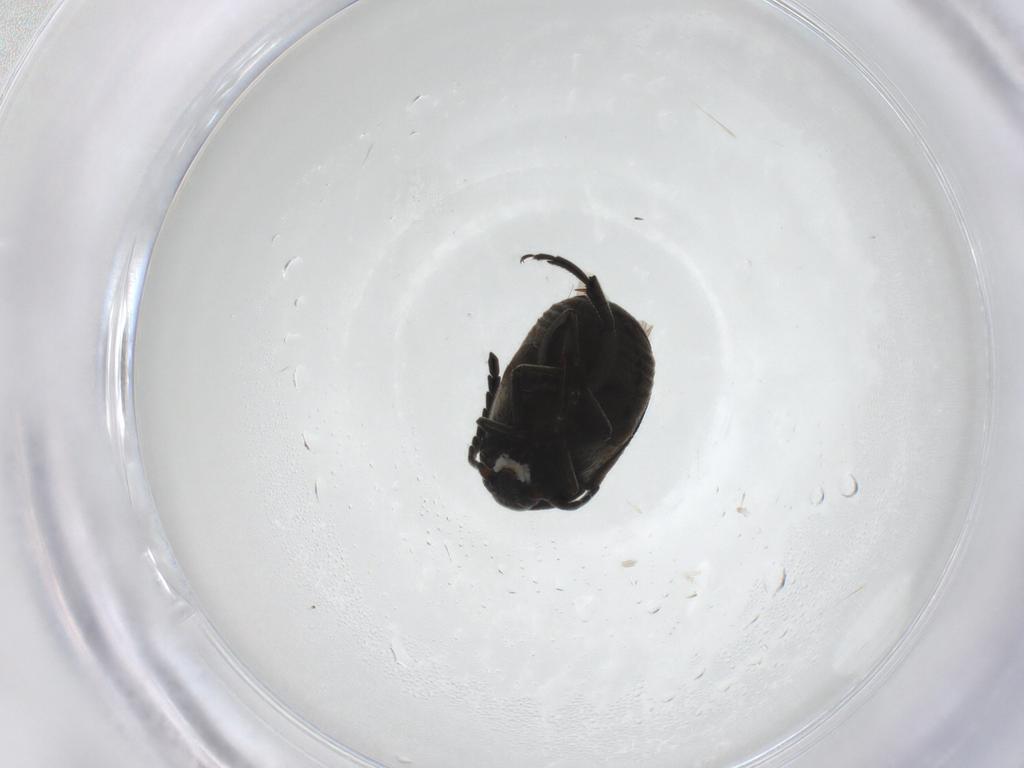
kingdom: Animalia
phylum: Arthropoda
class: Insecta
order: Coleoptera
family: Chrysomelidae
